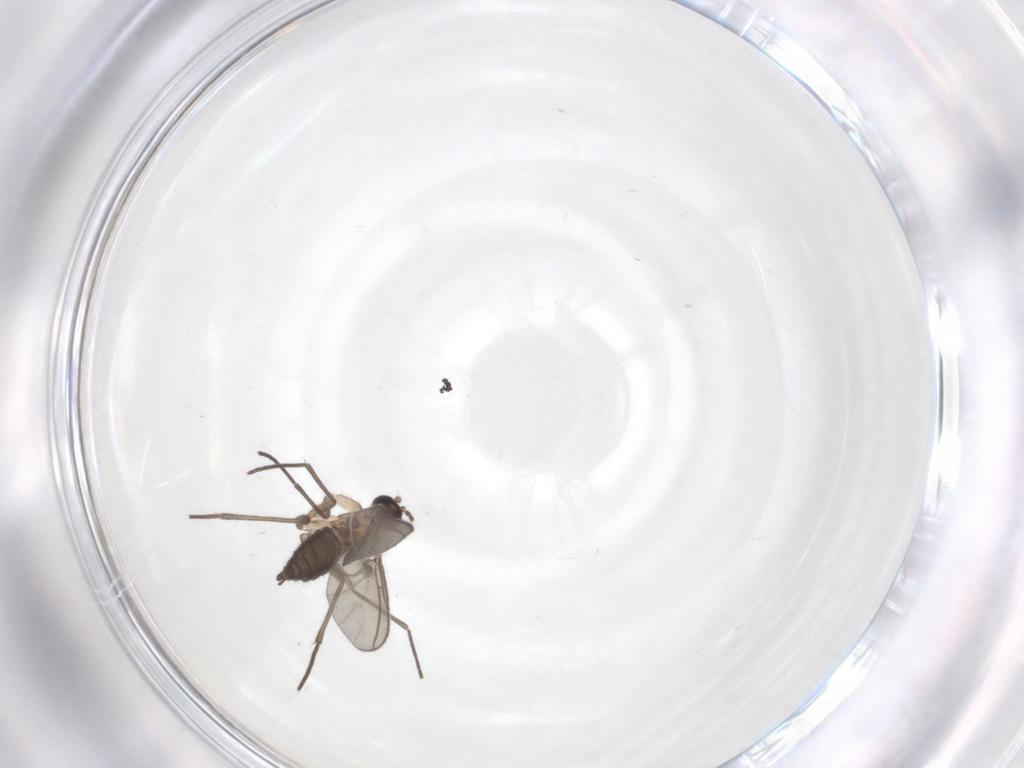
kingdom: Animalia
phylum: Arthropoda
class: Insecta
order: Diptera
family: Sciaridae
